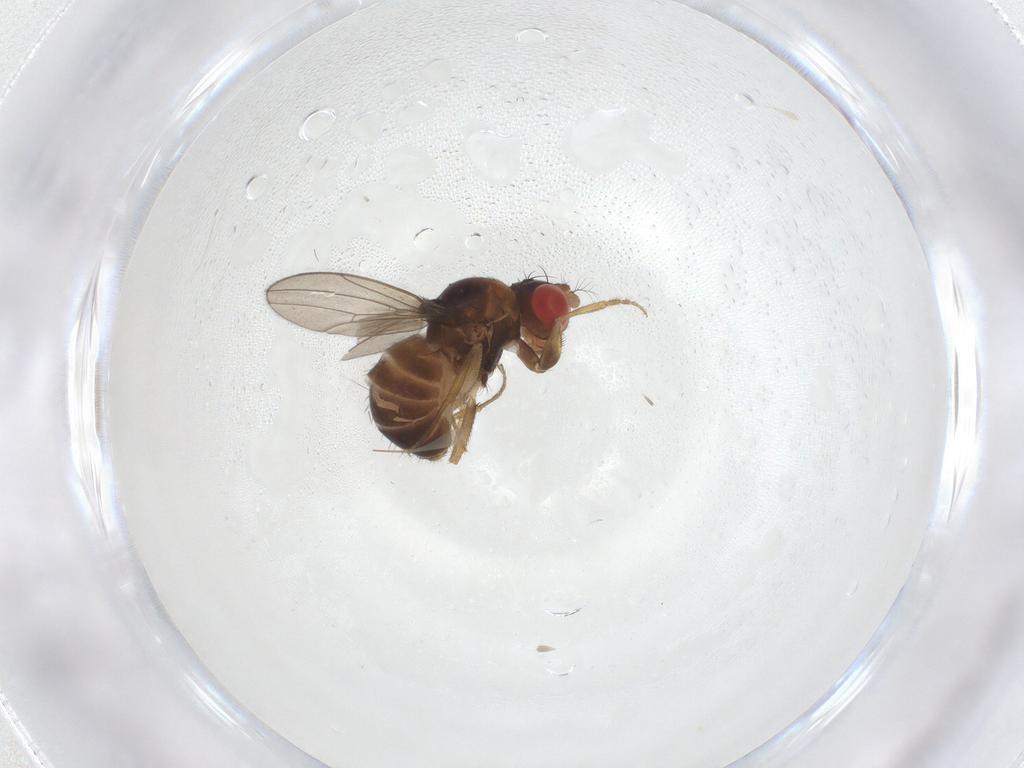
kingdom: Animalia
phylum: Arthropoda
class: Insecta
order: Diptera
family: Drosophilidae
